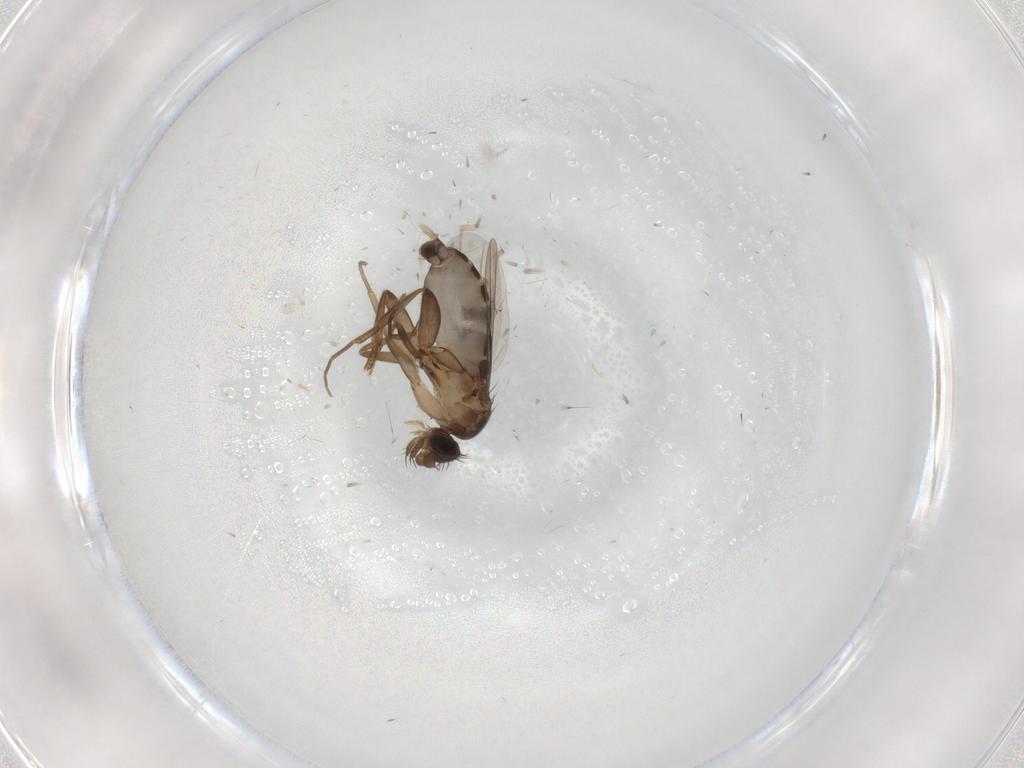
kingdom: Animalia
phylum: Arthropoda
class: Insecta
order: Diptera
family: Phoridae
